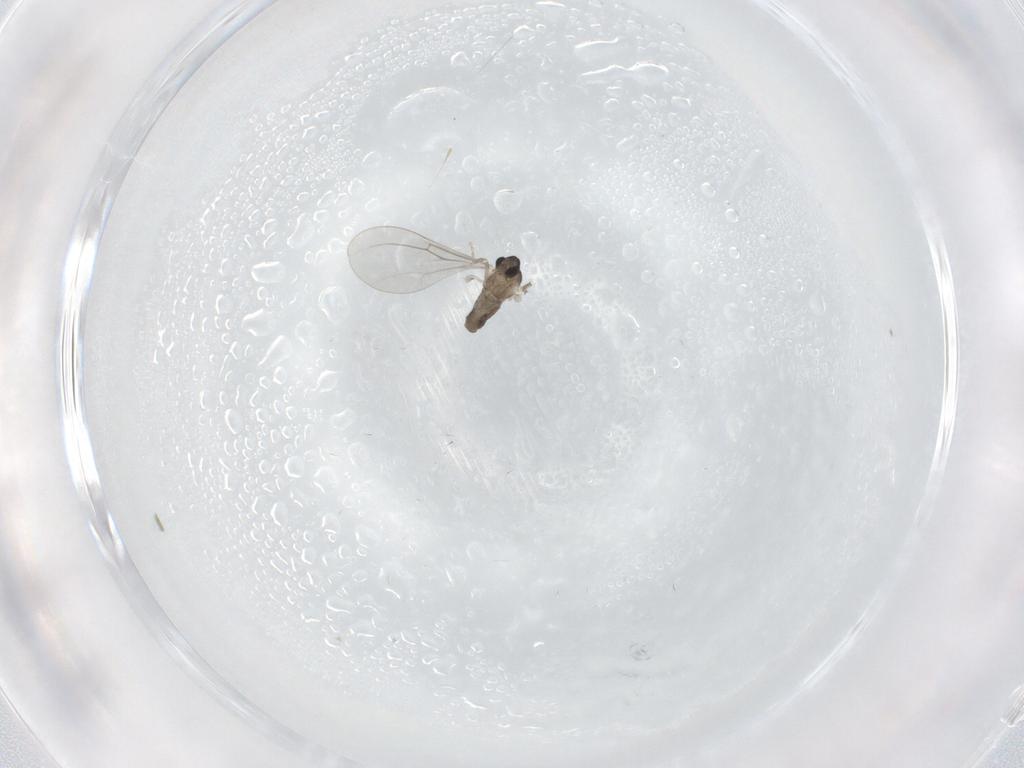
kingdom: Animalia
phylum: Arthropoda
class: Insecta
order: Diptera
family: Cecidomyiidae
